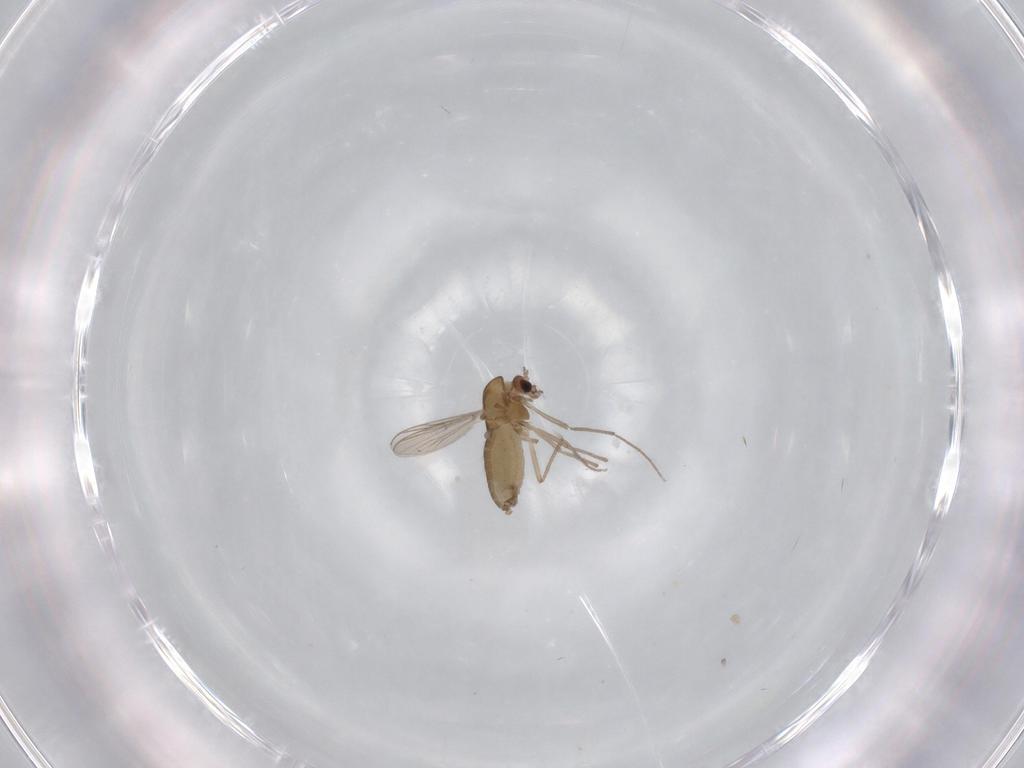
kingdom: Animalia
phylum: Arthropoda
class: Insecta
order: Diptera
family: Chironomidae
